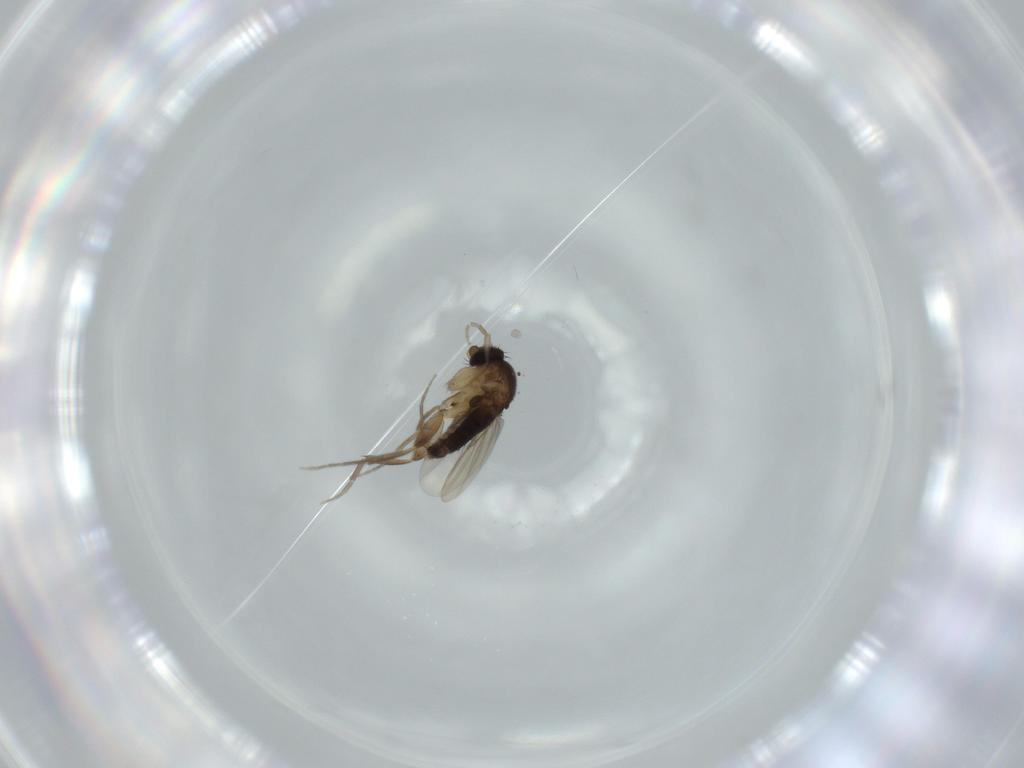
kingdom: Animalia
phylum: Arthropoda
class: Insecta
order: Diptera
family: Phoridae
